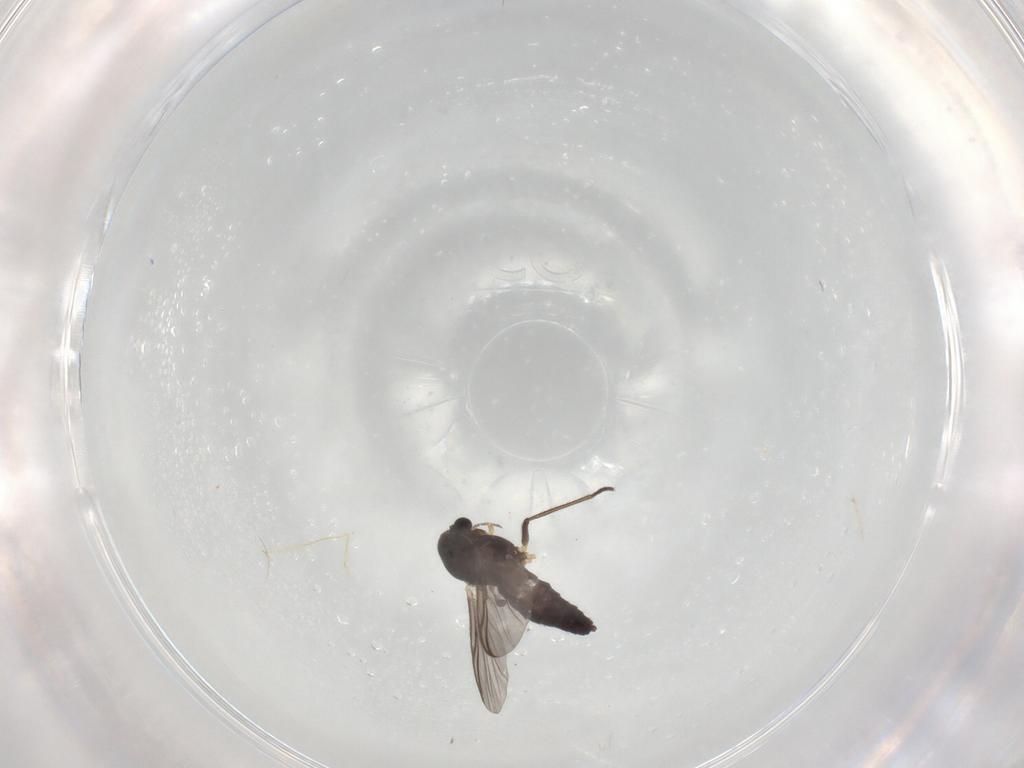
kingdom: Animalia
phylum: Arthropoda
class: Insecta
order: Diptera
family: Chironomidae
